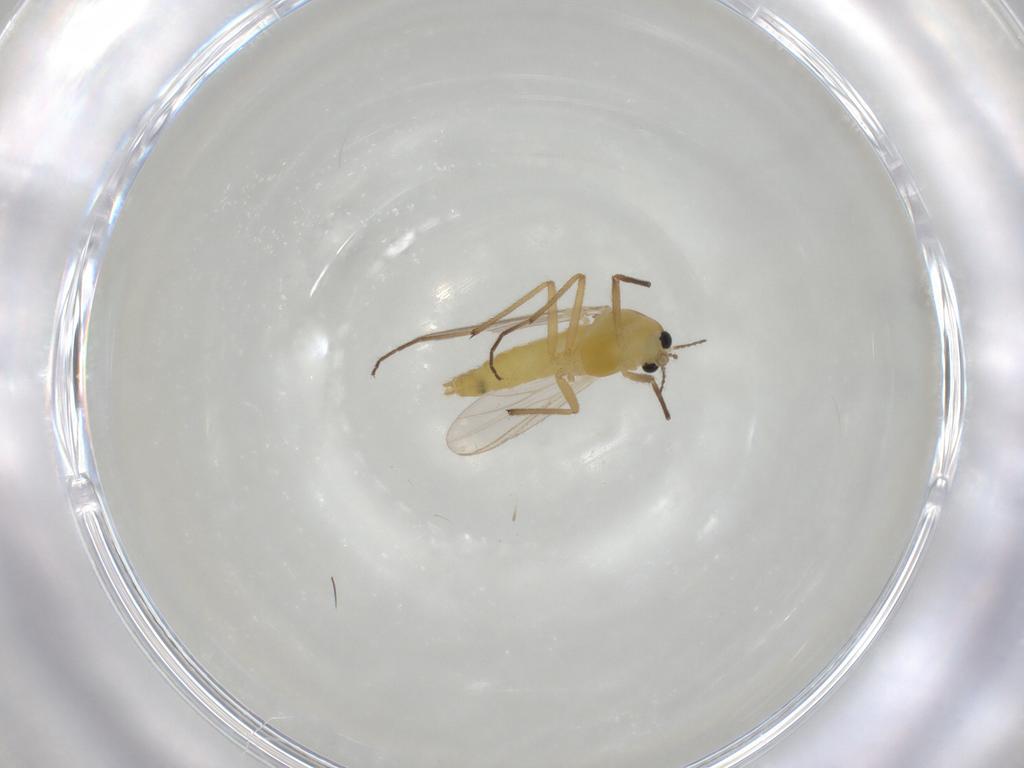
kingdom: Animalia
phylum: Arthropoda
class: Insecta
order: Diptera
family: Chironomidae
